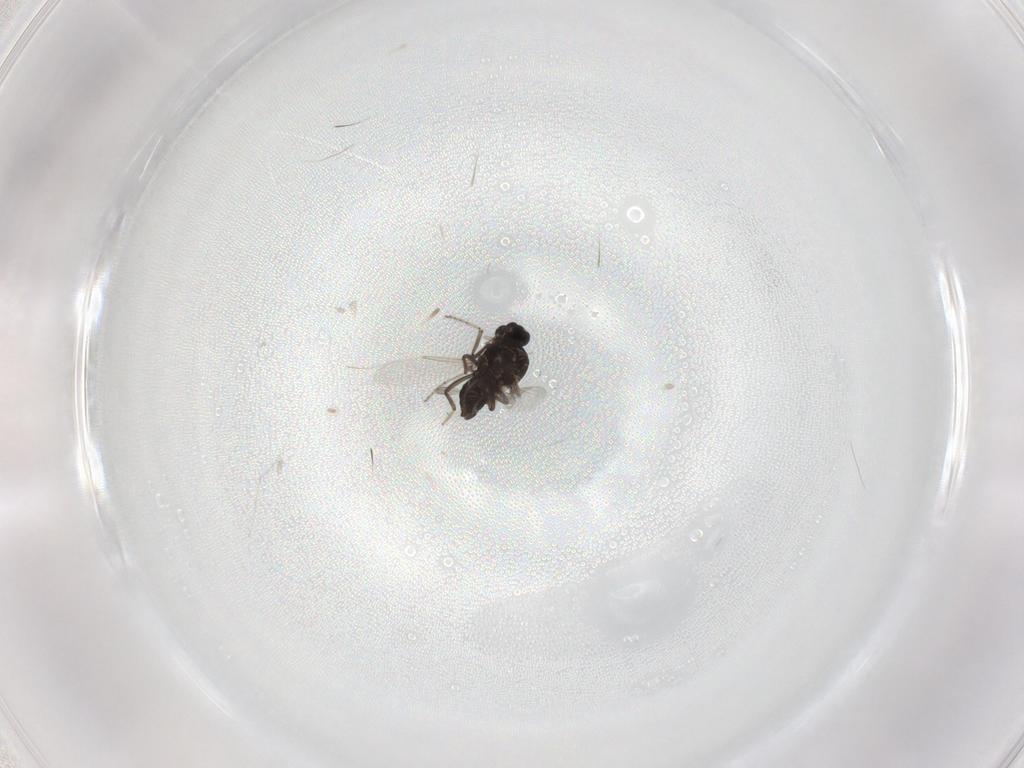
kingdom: Animalia
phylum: Arthropoda
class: Insecta
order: Diptera
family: Ceratopogonidae
